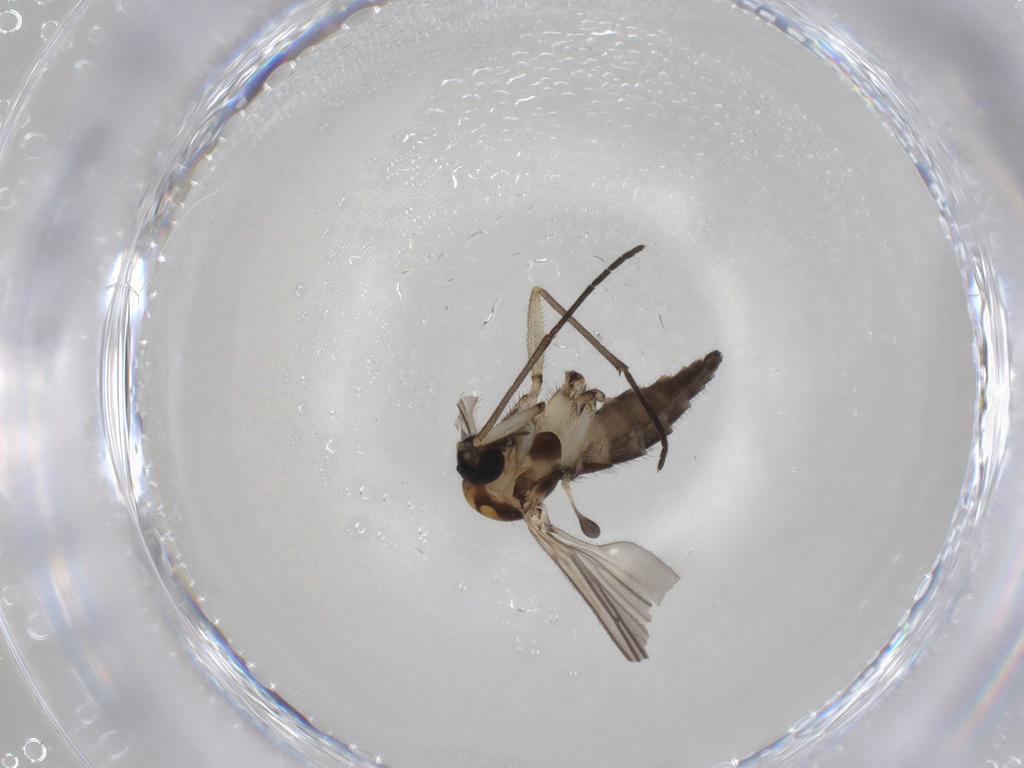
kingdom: Animalia
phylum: Arthropoda
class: Insecta
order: Diptera
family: Chironomidae
